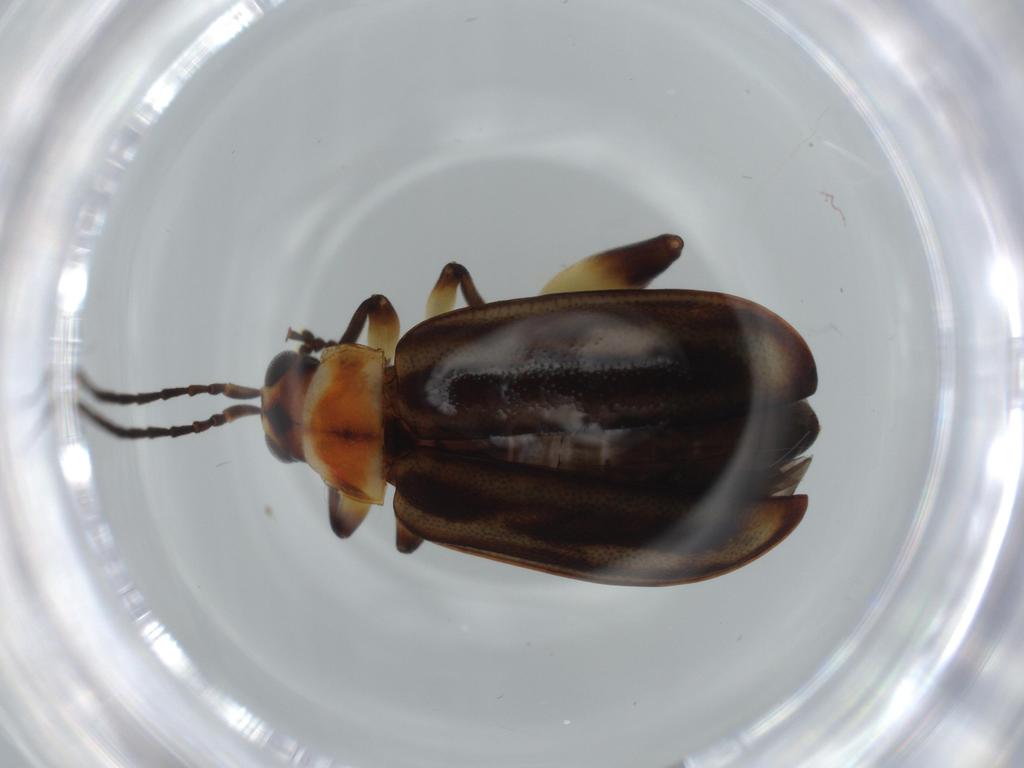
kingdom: Animalia
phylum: Arthropoda
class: Insecta
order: Coleoptera
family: Chrysomelidae
